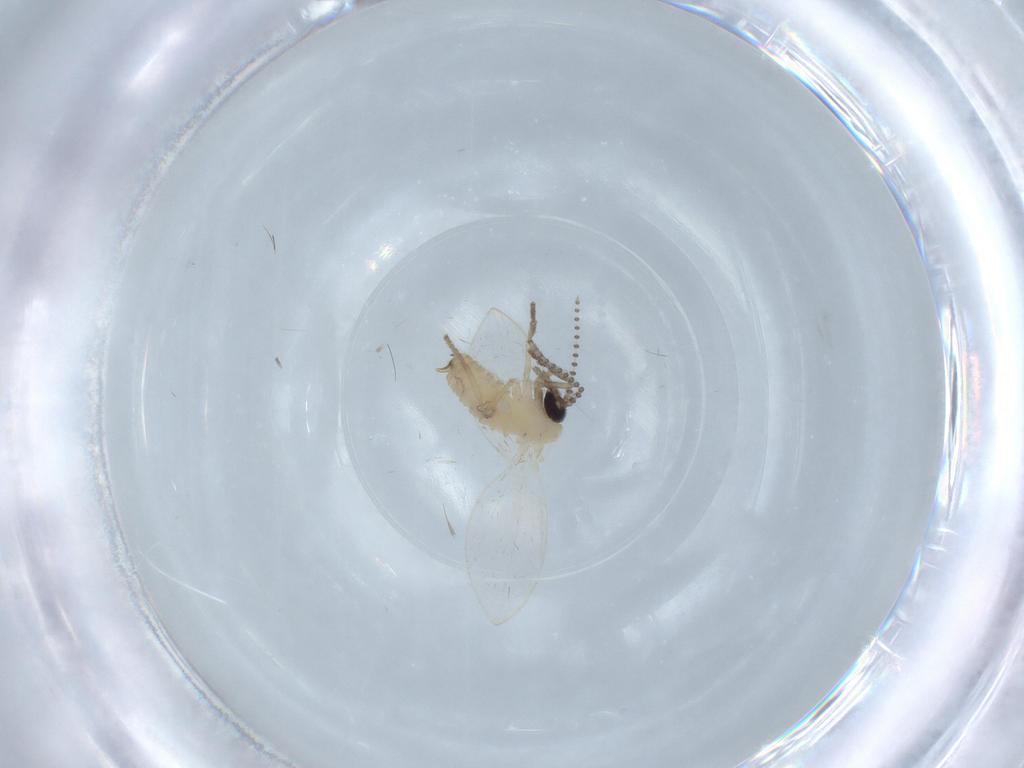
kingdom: Animalia
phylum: Arthropoda
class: Insecta
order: Diptera
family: Psychodidae
